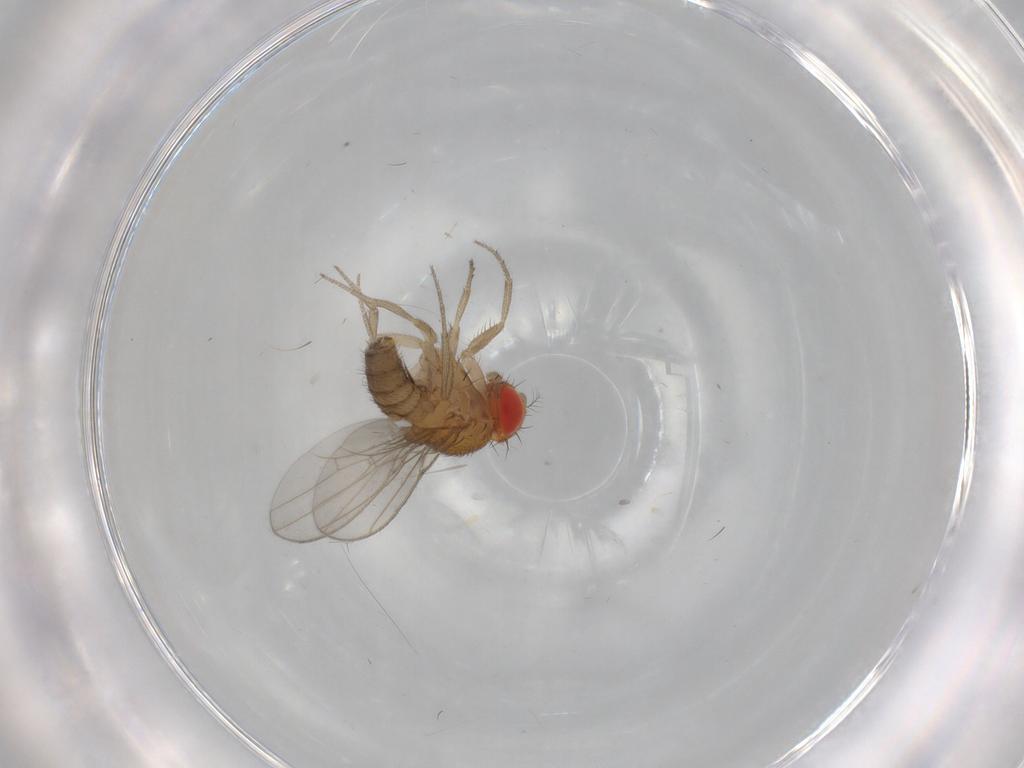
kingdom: Animalia
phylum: Arthropoda
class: Insecta
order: Diptera
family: Drosophilidae
